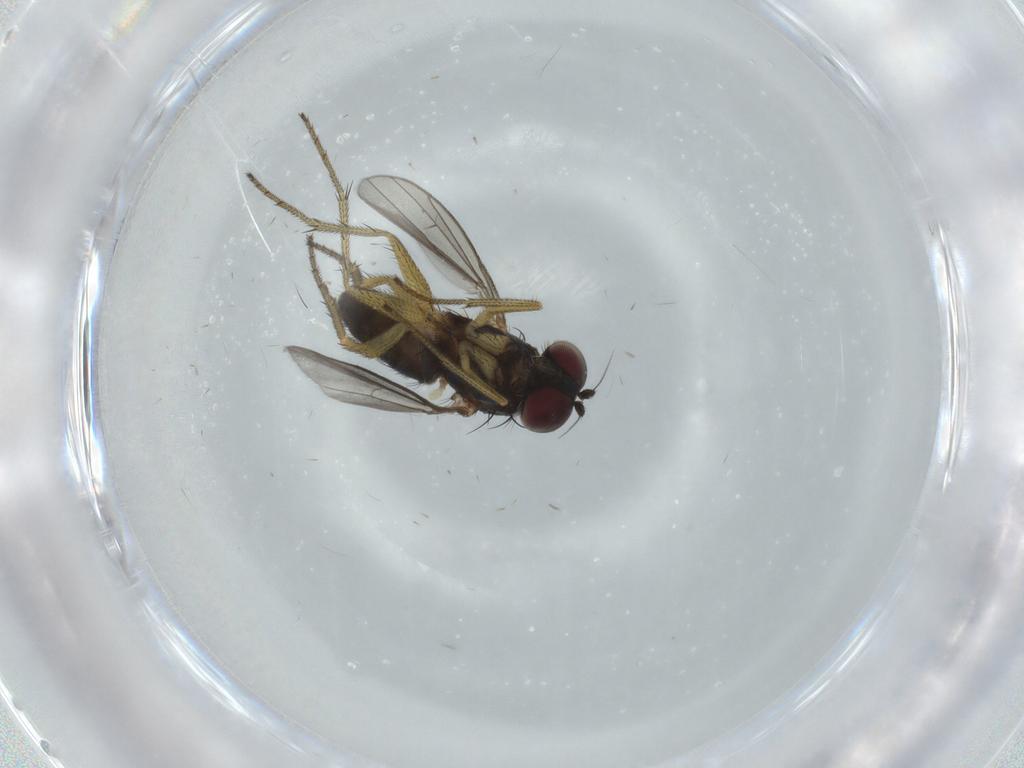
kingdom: Animalia
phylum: Arthropoda
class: Insecta
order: Diptera
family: Dolichopodidae
